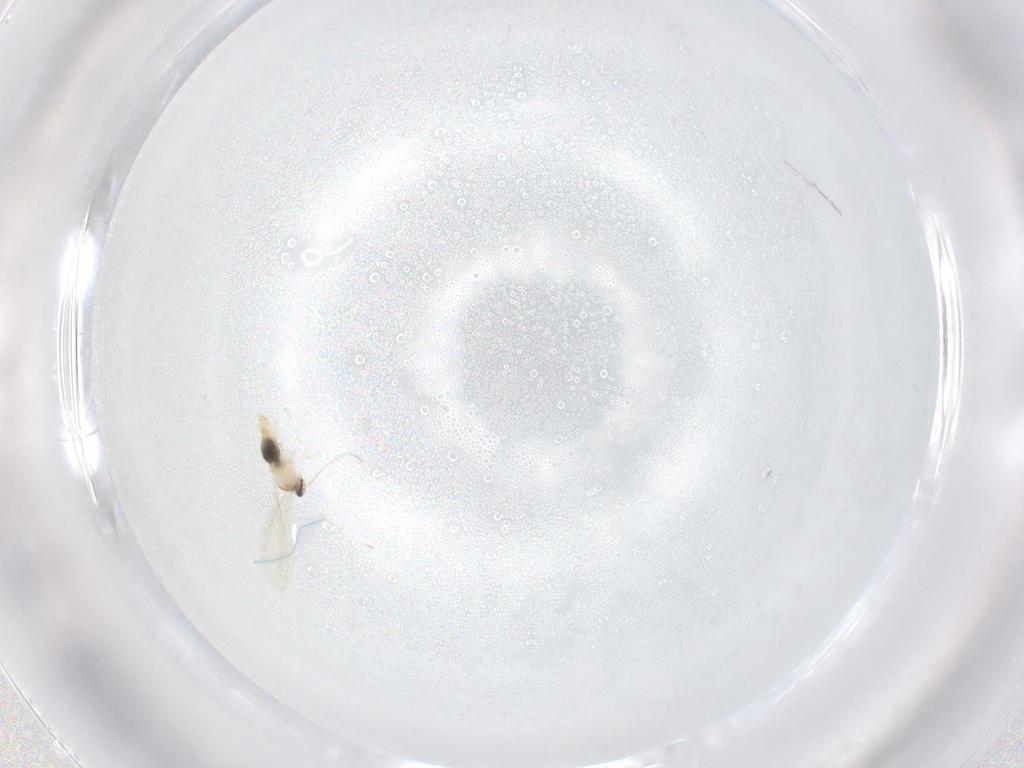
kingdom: Animalia
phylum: Arthropoda
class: Insecta
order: Diptera
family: Cecidomyiidae
